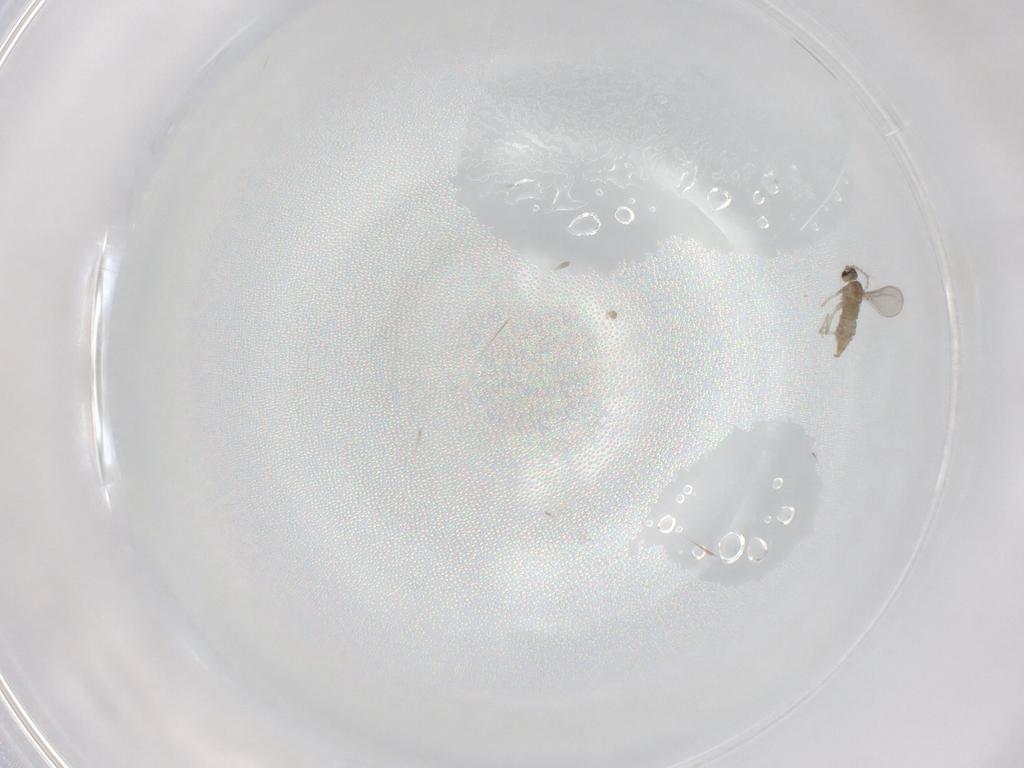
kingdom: Animalia
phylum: Arthropoda
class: Insecta
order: Diptera
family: Cecidomyiidae
